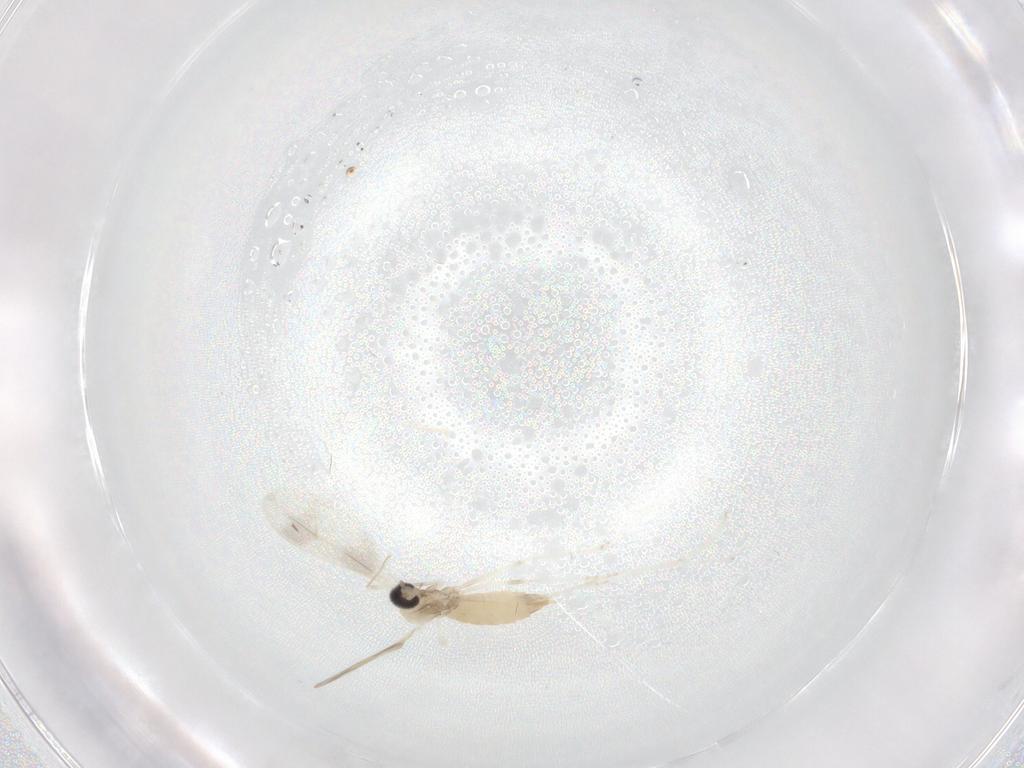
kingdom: Animalia
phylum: Arthropoda
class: Insecta
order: Diptera
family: Cecidomyiidae
